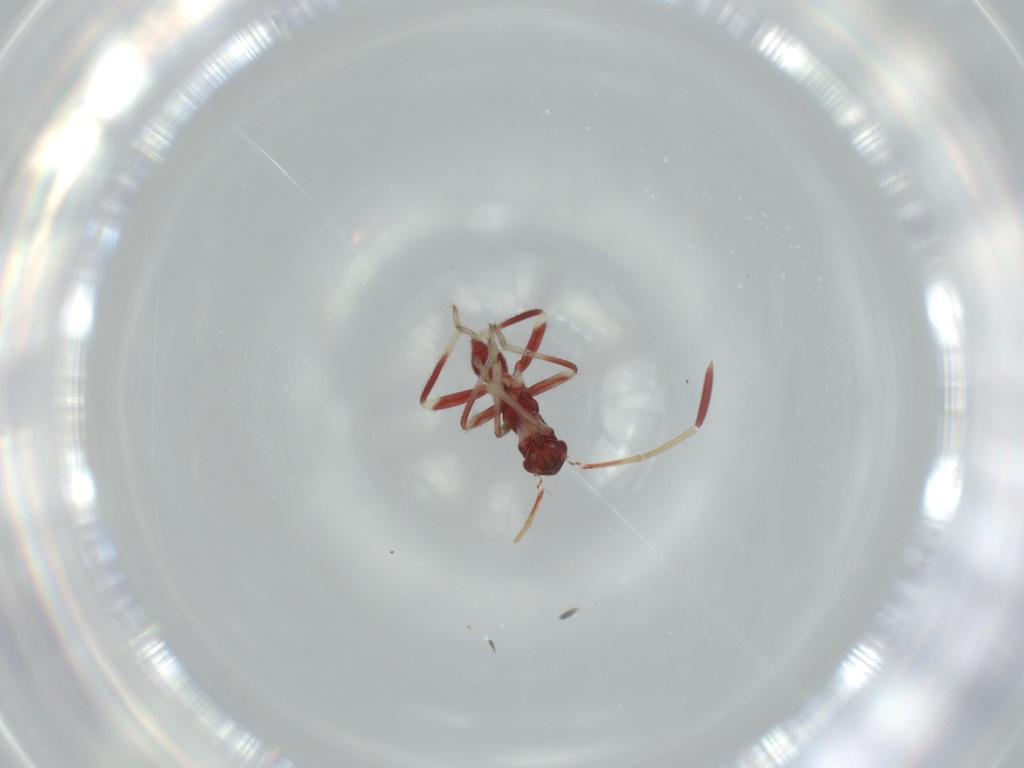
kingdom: Animalia
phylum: Arthropoda
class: Insecta
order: Hemiptera
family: Miridae
